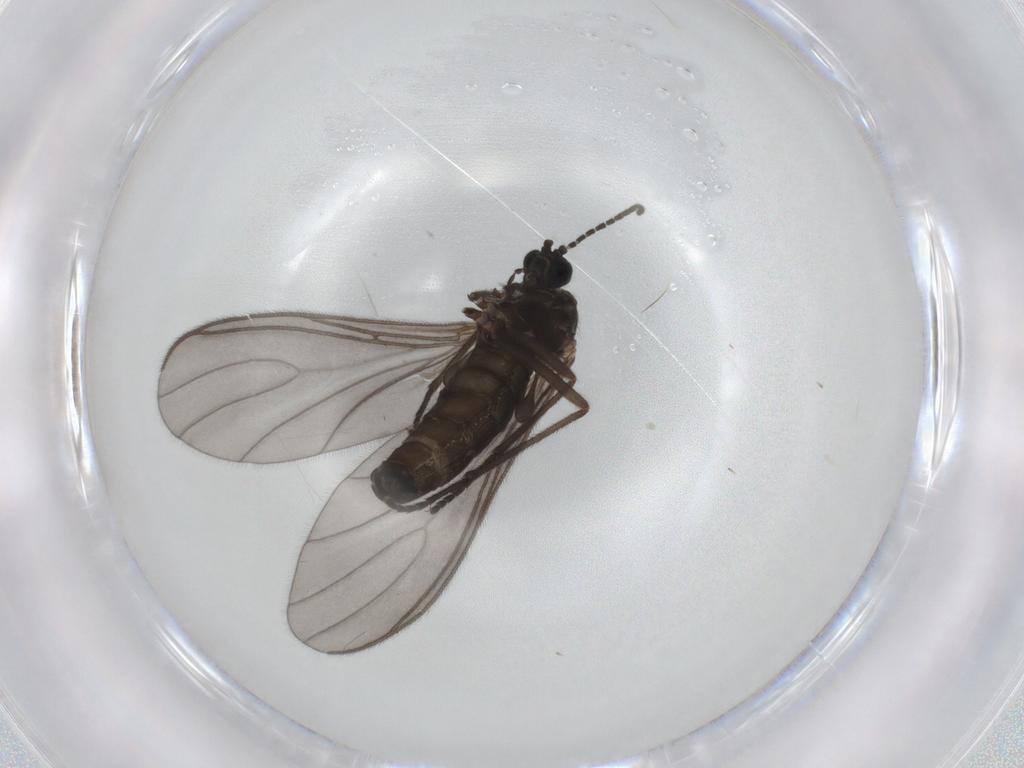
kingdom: Animalia
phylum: Arthropoda
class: Insecta
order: Diptera
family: Sciaridae
